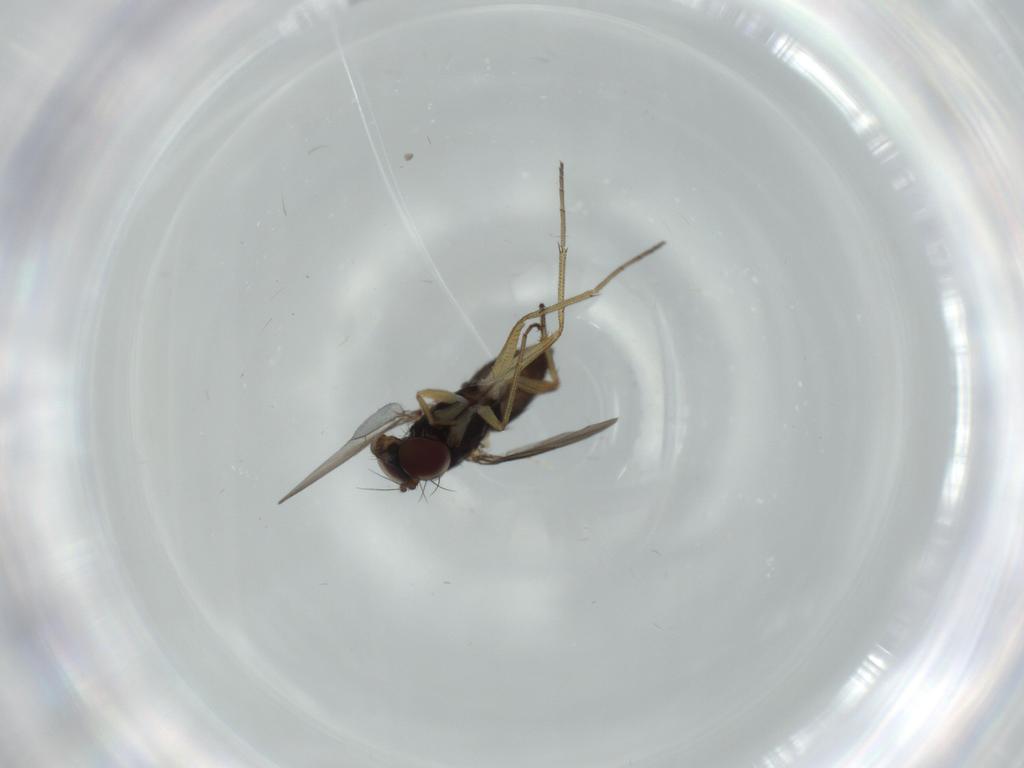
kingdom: Animalia
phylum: Arthropoda
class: Insecta
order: Diptera
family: Dolichopodidae
